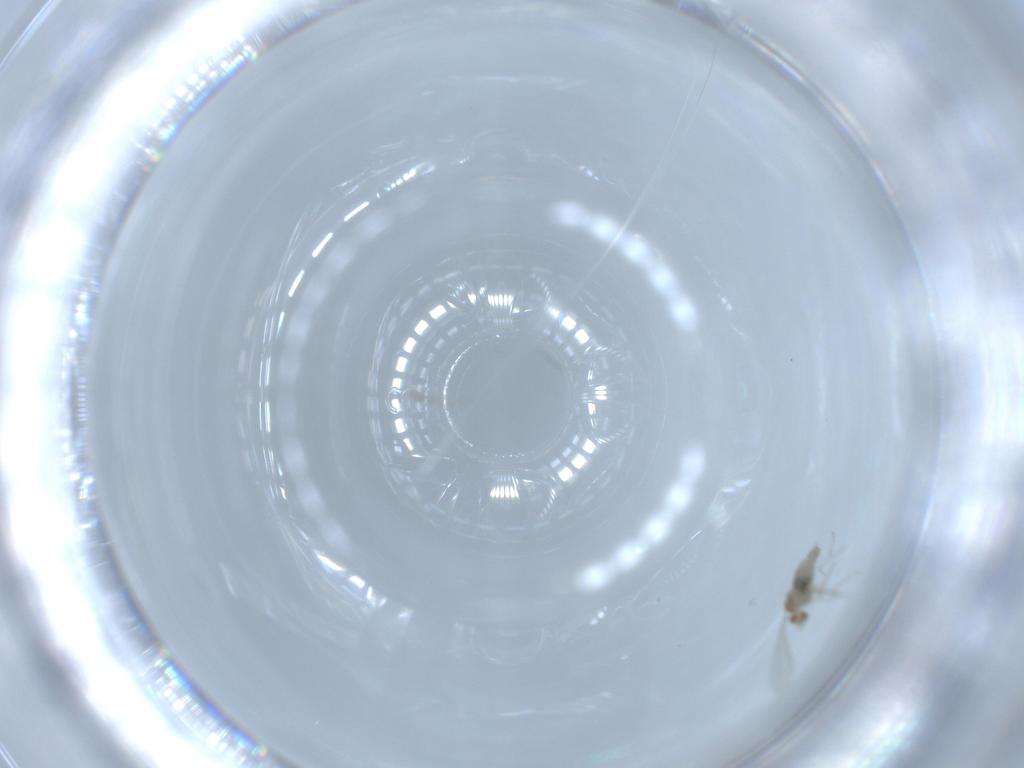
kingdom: Animalia
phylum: Arthropoda
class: Insecta
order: Diptera
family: Cecidomyiidae
